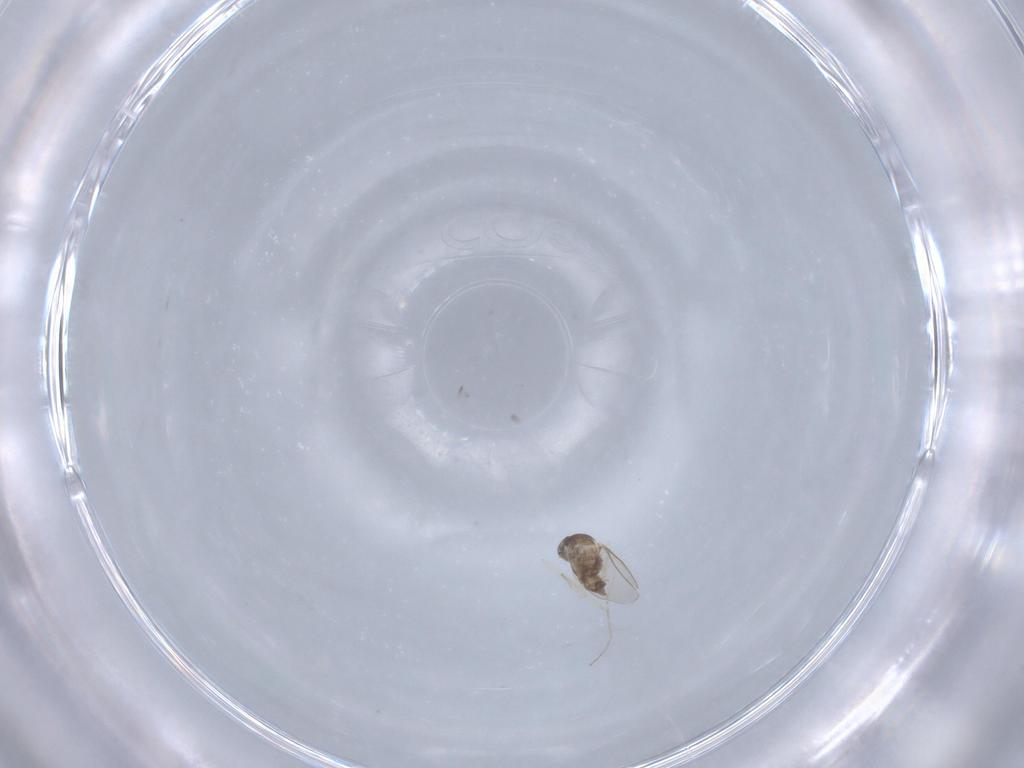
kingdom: Animalia
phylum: Arthropoda
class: Insecta
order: Diptera
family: Cecidomyiidae
